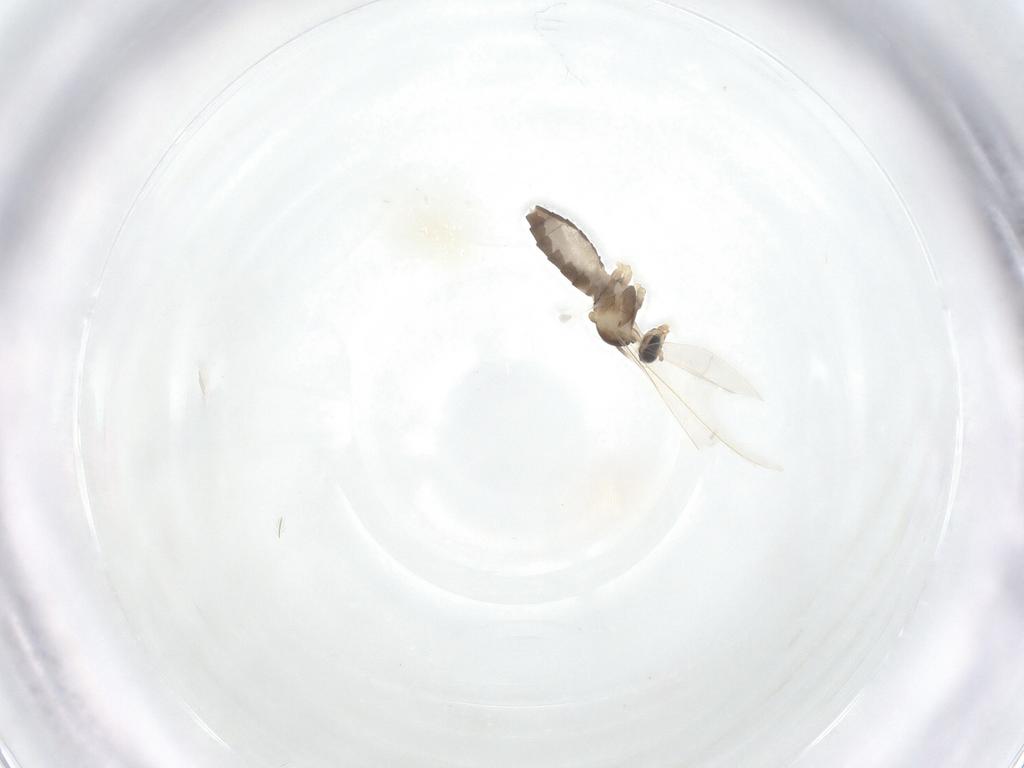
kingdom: Animalia
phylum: Arthropoda
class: Insecta
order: Diptera
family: Cecidomyiidae
